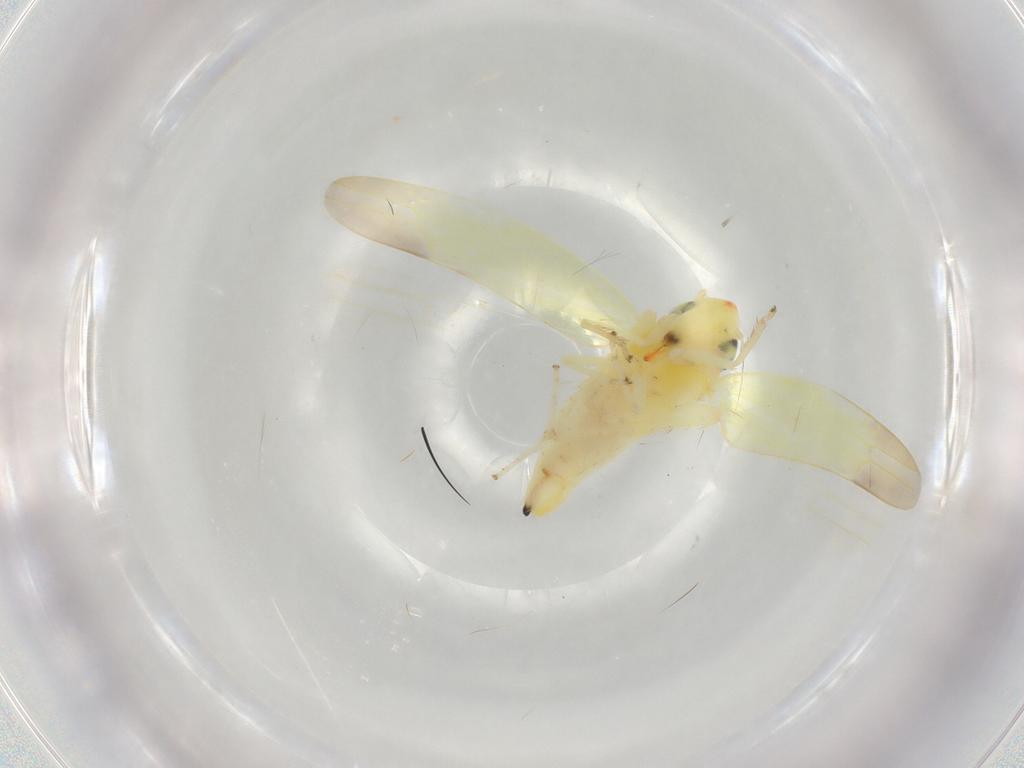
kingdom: Animalia
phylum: Arthropoda
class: Insecta
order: Hemiptera
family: Cicadellidae
